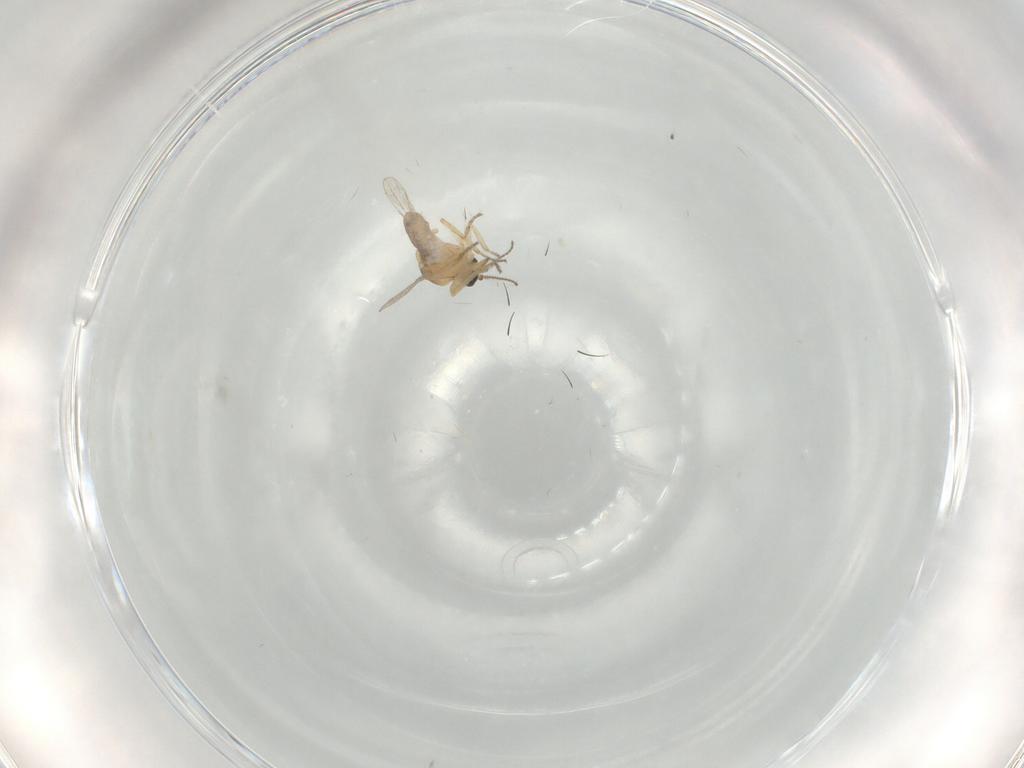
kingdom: Animalia
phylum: Arthropoda
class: Insecta
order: Diptera
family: Ceratopogonidae
